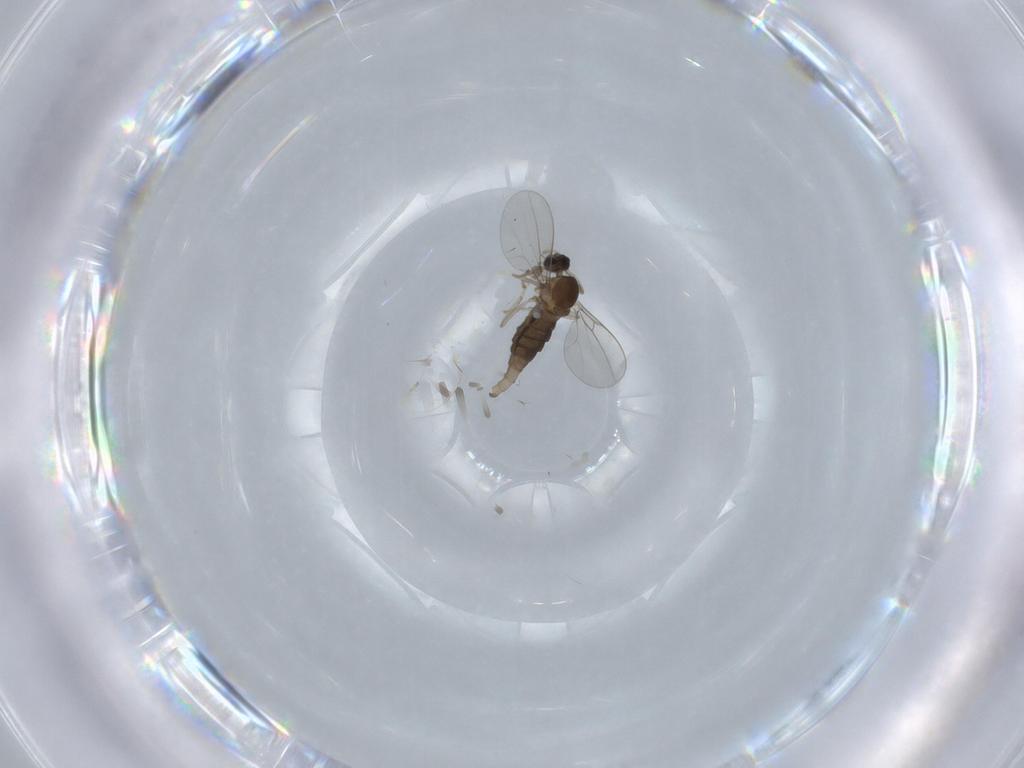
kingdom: Animalia
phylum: Arthropoda
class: Insecta
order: Diptera
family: Cecidomyiidae
